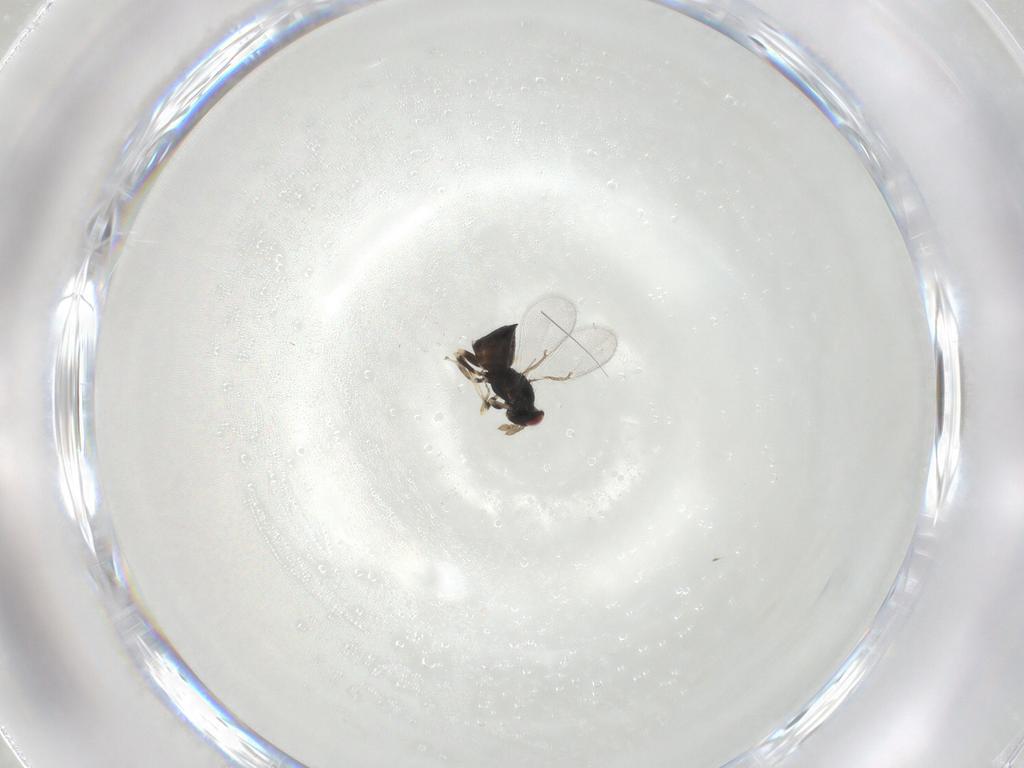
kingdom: Animalia
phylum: Arthropoda
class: Insecta
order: Hymenoptera
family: Eulophidae
